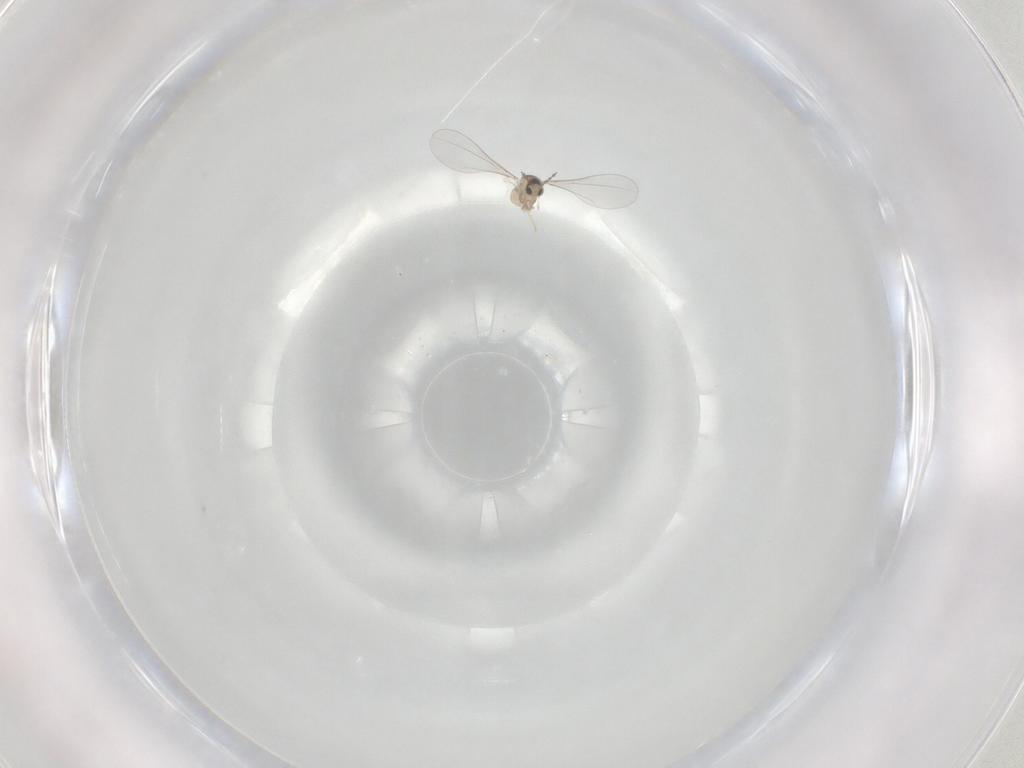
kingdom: Animalia
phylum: Arthropoda
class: Insecta
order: Diptera
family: Cecidomyiidae
